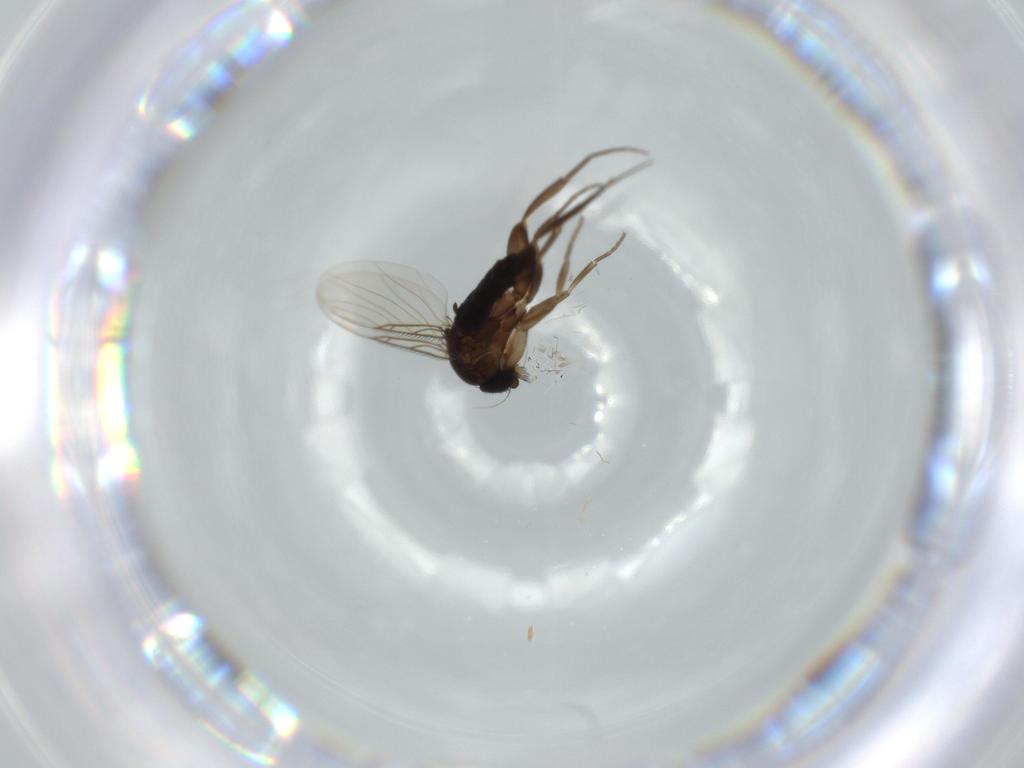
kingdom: Animalia
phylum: Arthropoda
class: Insecta
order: Diptera
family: Phoridae
